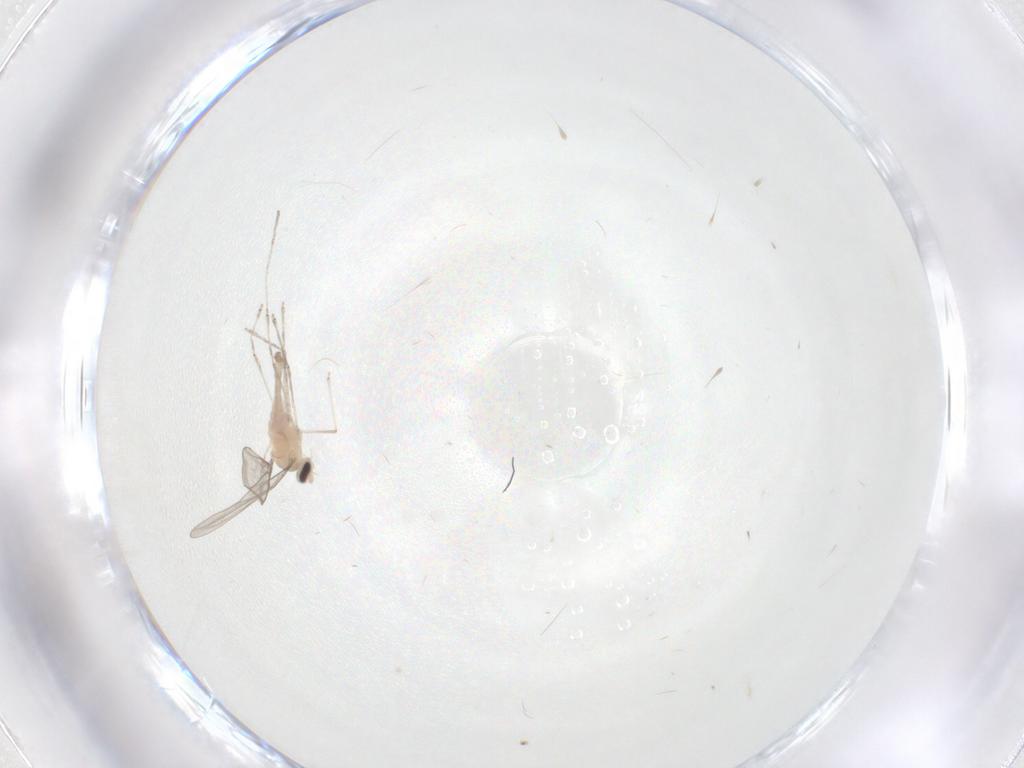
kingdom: Animalia
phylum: Arthropoda
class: Insecta
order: Diptera
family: Cecidomyiidae
